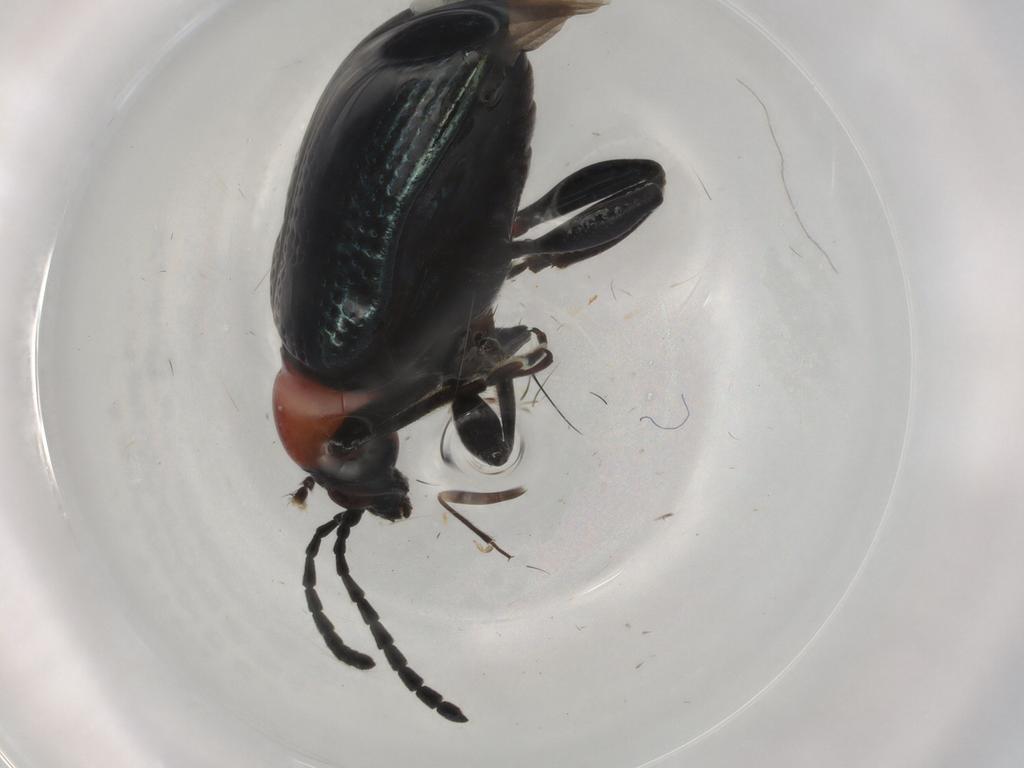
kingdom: Animalia
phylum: Arthropoda
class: Insecta
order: Coleoptera
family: Chrysomelidae
